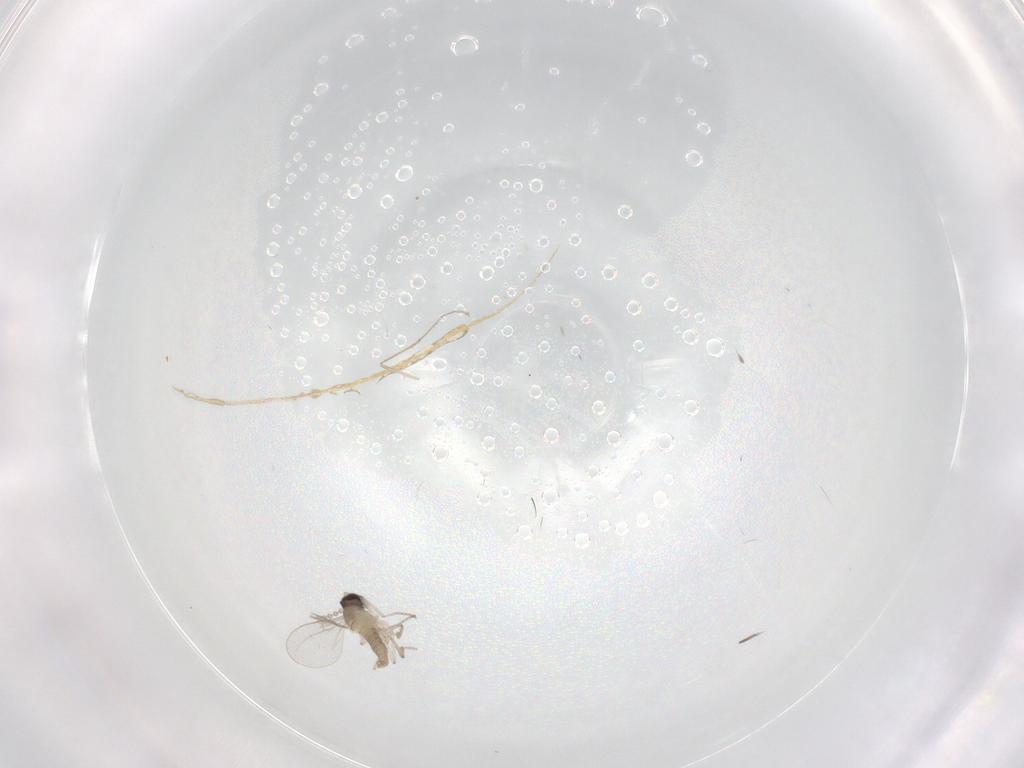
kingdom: Animalia
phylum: Arthropoda
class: Insecta
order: Diptera
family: Cecidomyiidae
